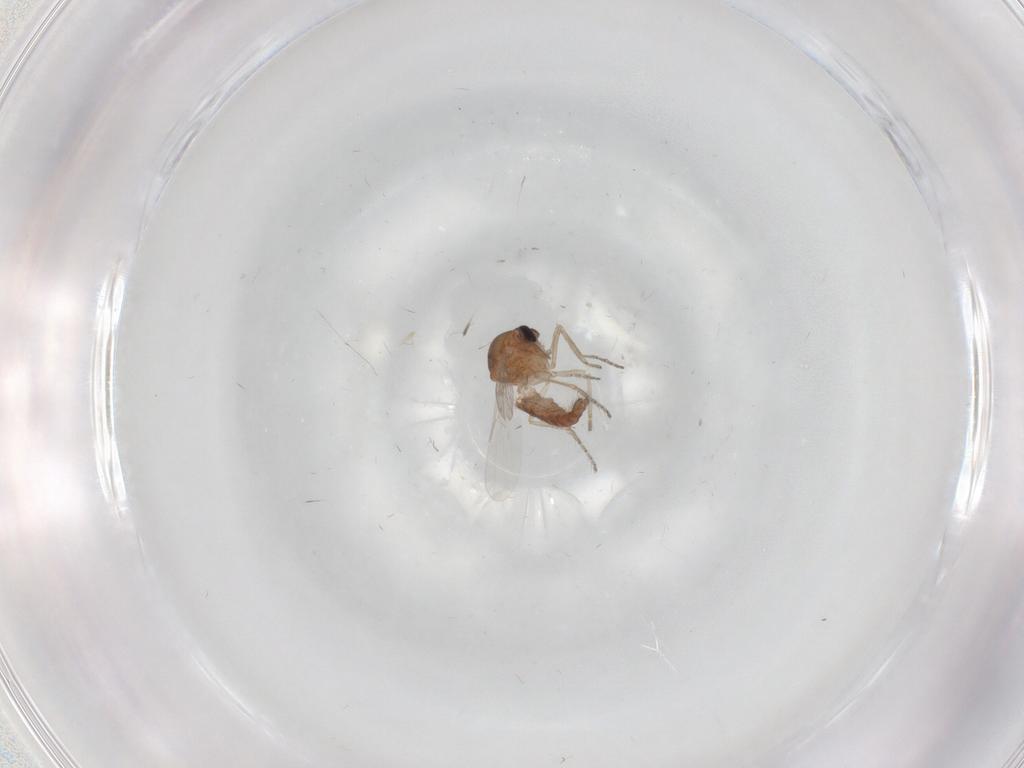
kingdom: Animalia
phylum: Arthropoda
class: Insecta
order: Diptera
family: Ceratopogonidae
